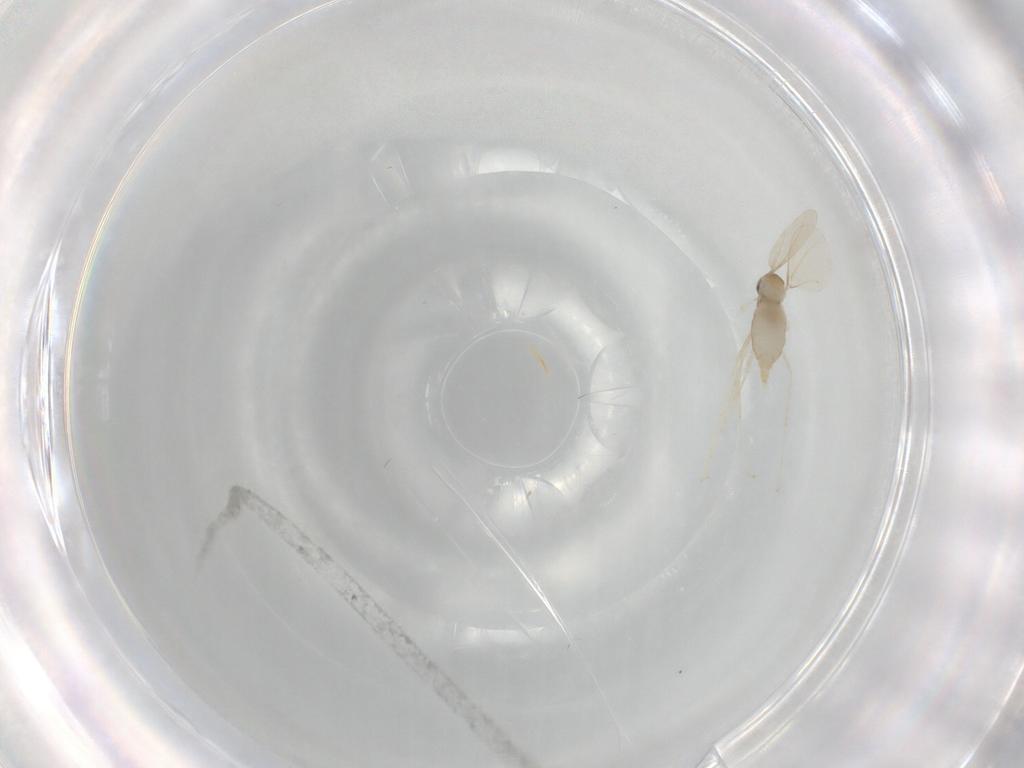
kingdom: Animalia
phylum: Arthropoda
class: Insecta
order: Diptera
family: Cecidomyiidae
